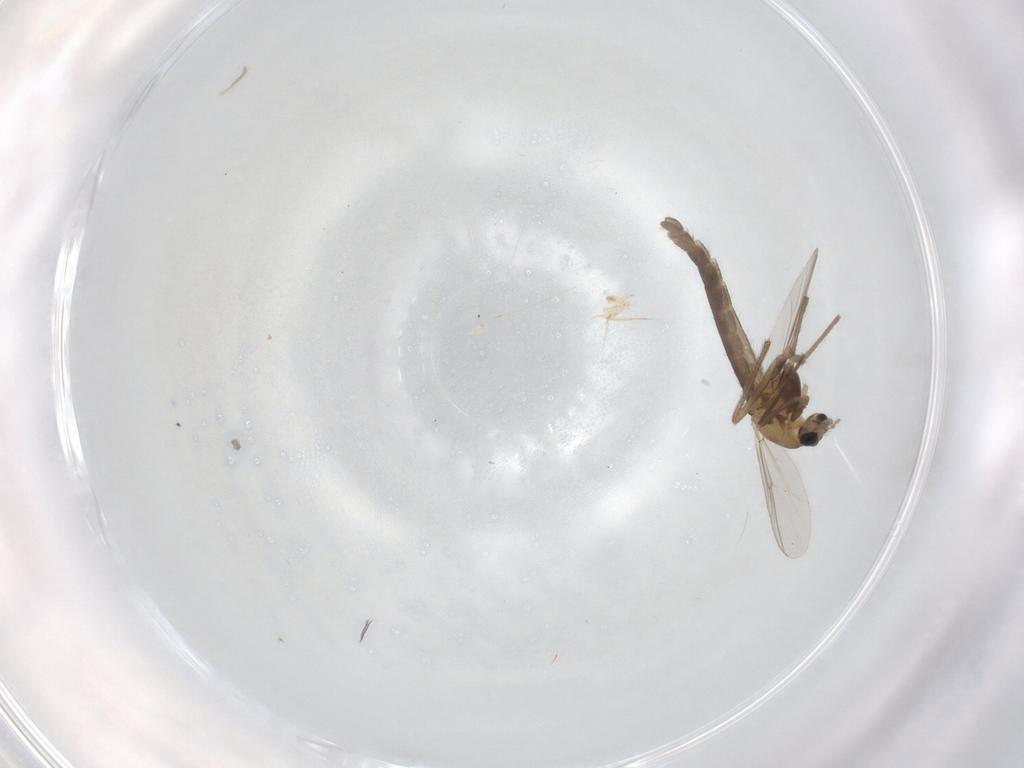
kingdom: Animalia
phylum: Arthropoda
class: Insecta
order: Diptera
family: Chironomidae
